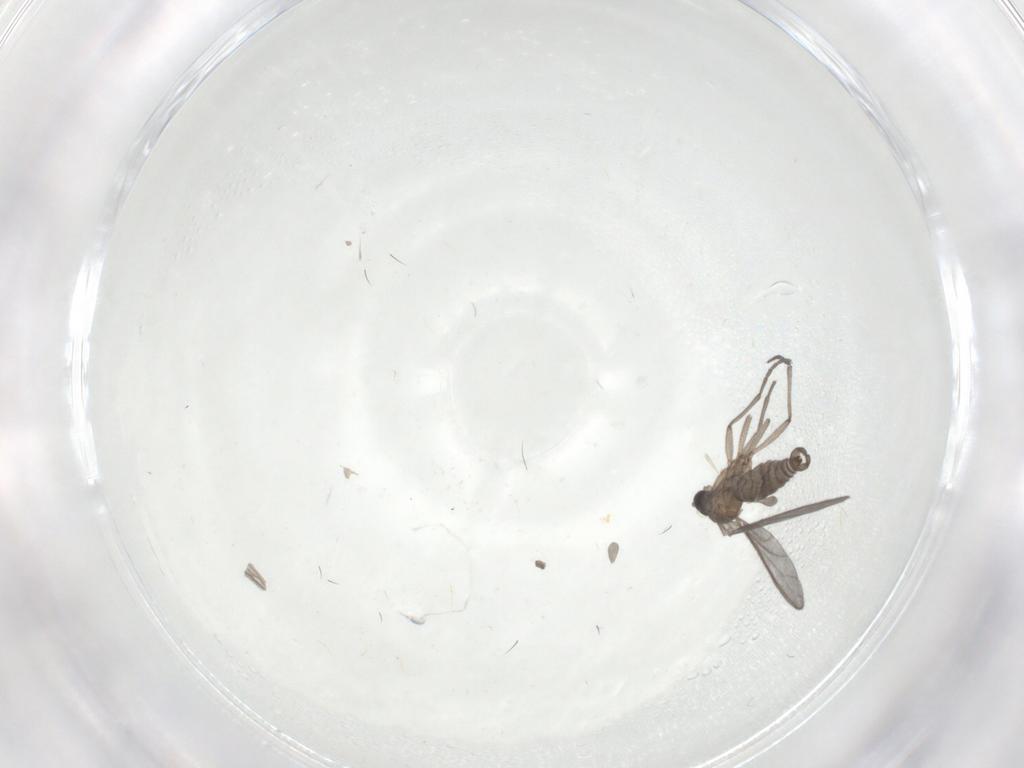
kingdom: Animalia
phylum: Arthropoda
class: Insecta
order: Diptera
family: Sciaridae
